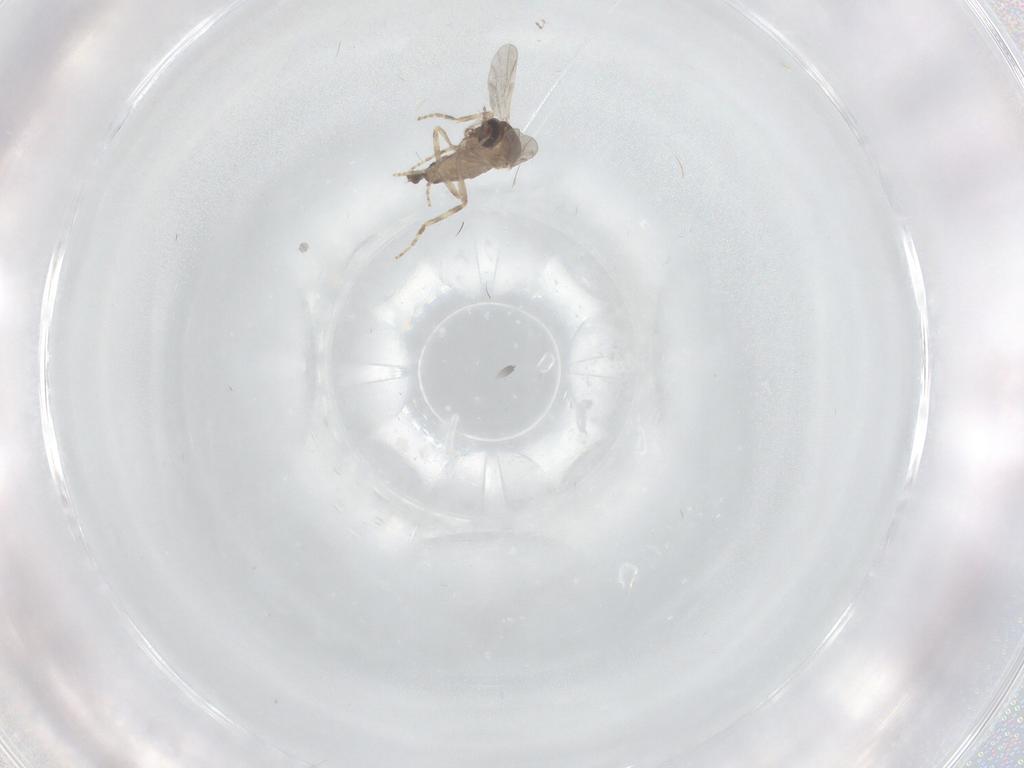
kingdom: Animalia
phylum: Arthropoda
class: Insecta
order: Diptera
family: Ceratopogonidae
